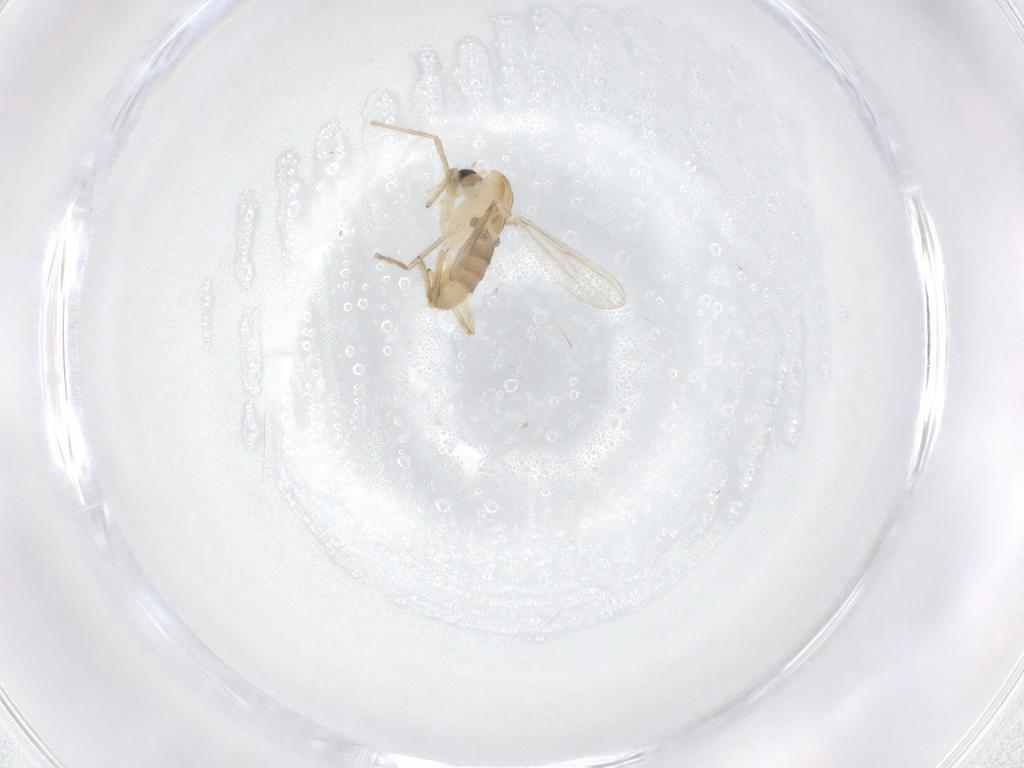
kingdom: Animalia
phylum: Arthropoda
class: Insecta
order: Diptera
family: Chironomidae
